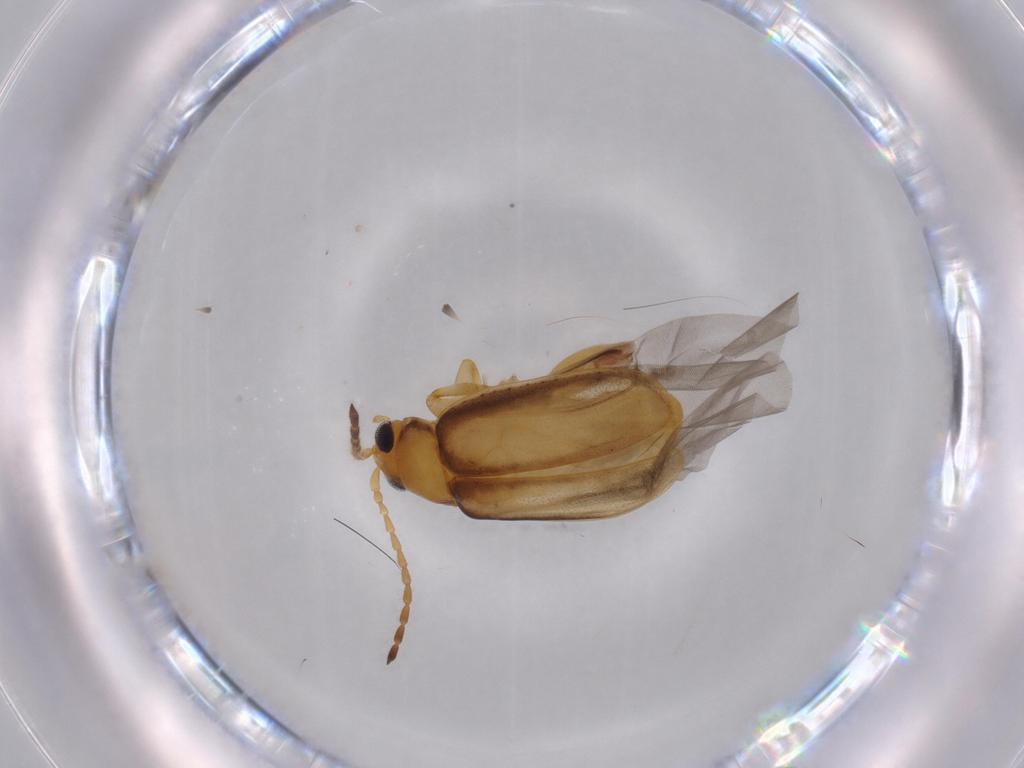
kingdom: Animalia
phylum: Arthropoda
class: Insecta
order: Coleoptera
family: Chrysomelidae
